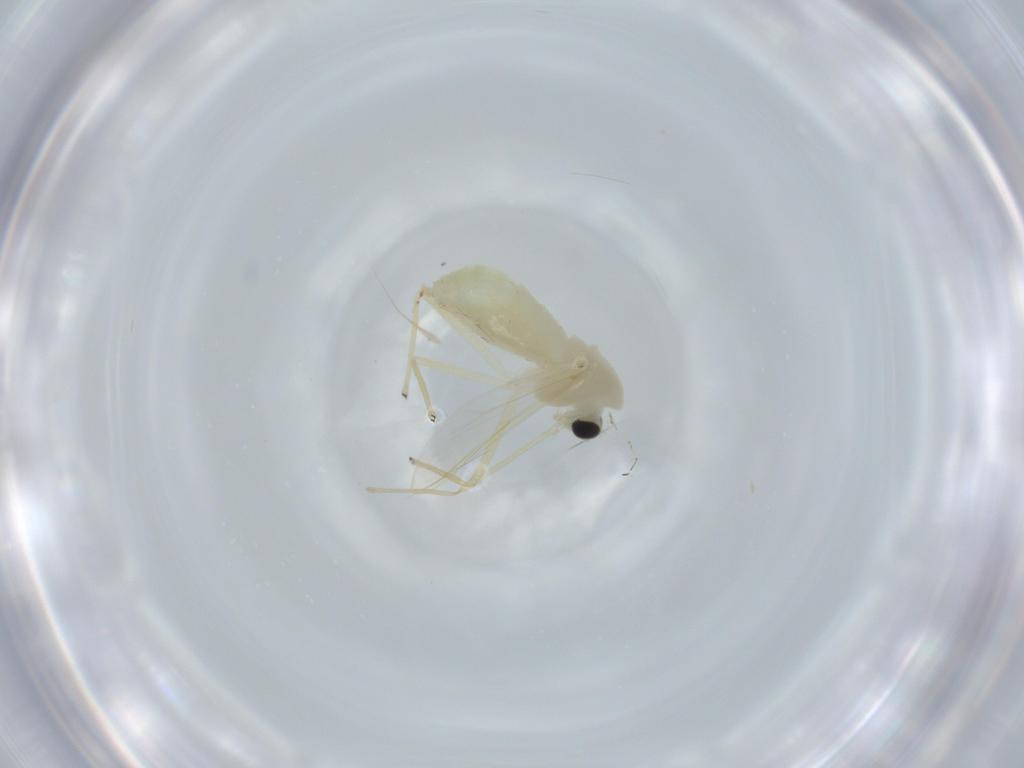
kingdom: Animalia
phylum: Arthropoda
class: Insecta
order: Diptera
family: Chironomidae
